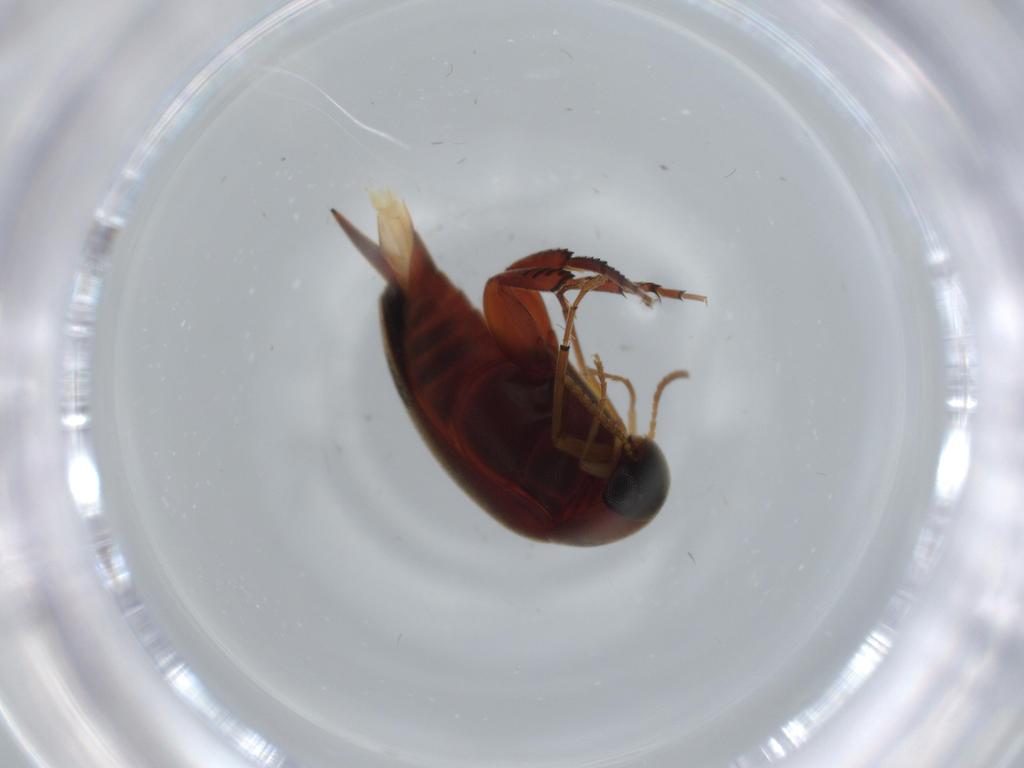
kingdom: Animalia
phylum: Arthropoda
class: Insecta
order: Coleoptera
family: Mordellidae
